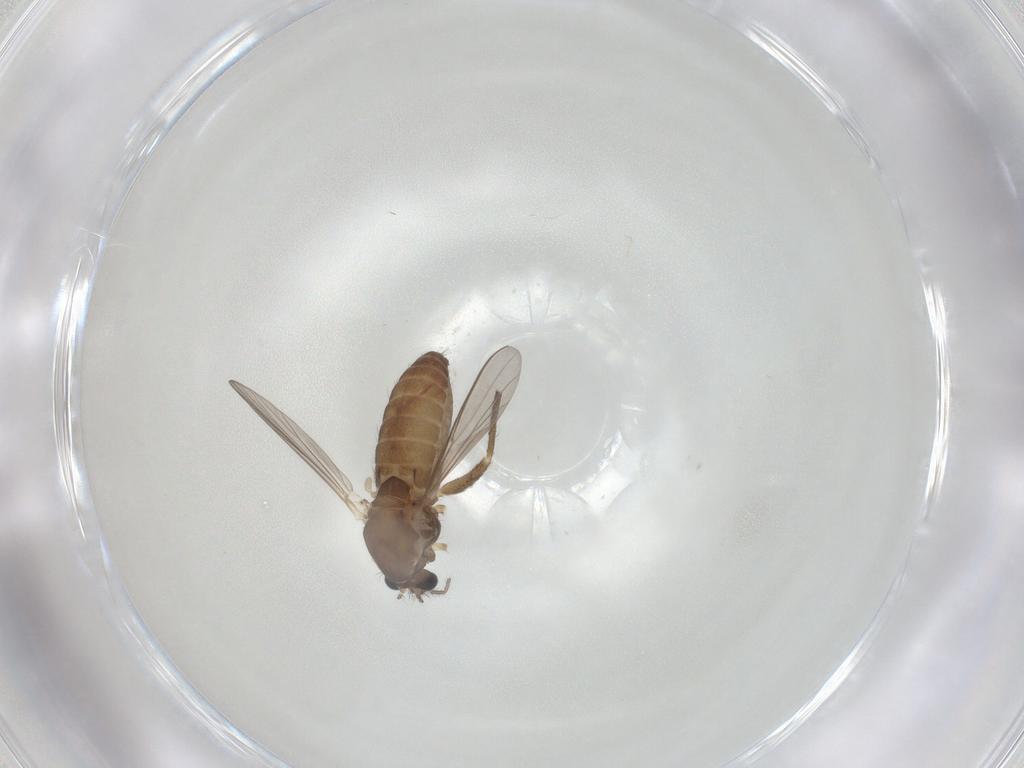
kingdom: Animalia
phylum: Arthropoda
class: Insecta
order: Diptera
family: Chironomidae
